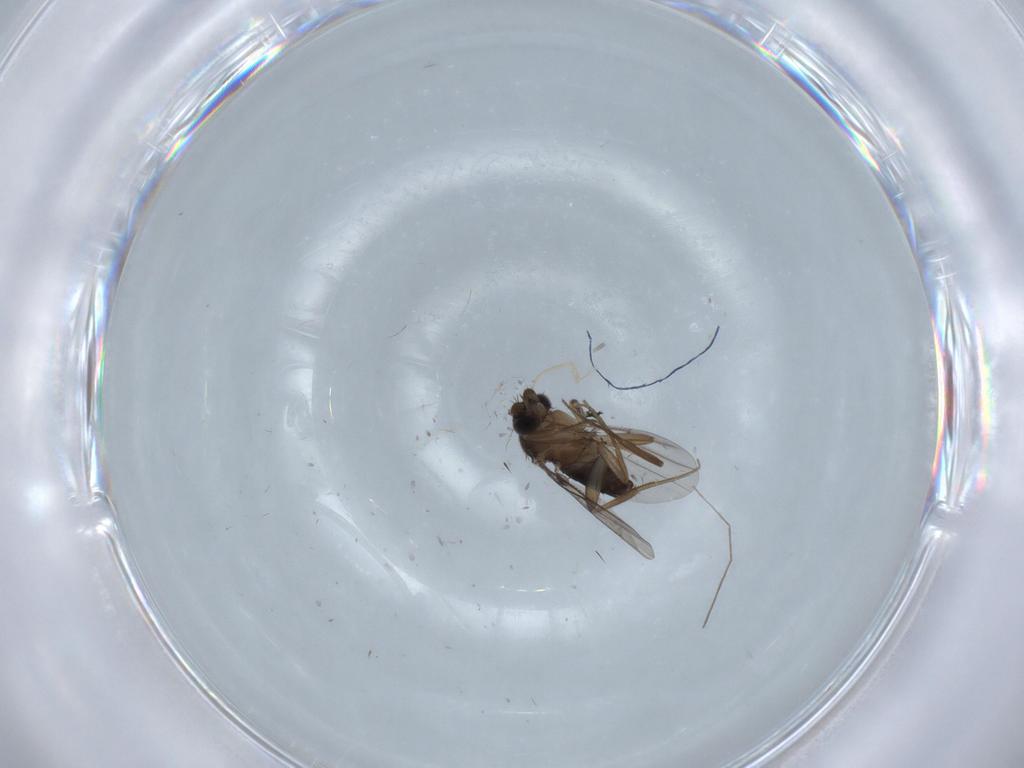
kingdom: Animalia
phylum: Arthropoda
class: Insecta
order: Diptera
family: Phoridae
